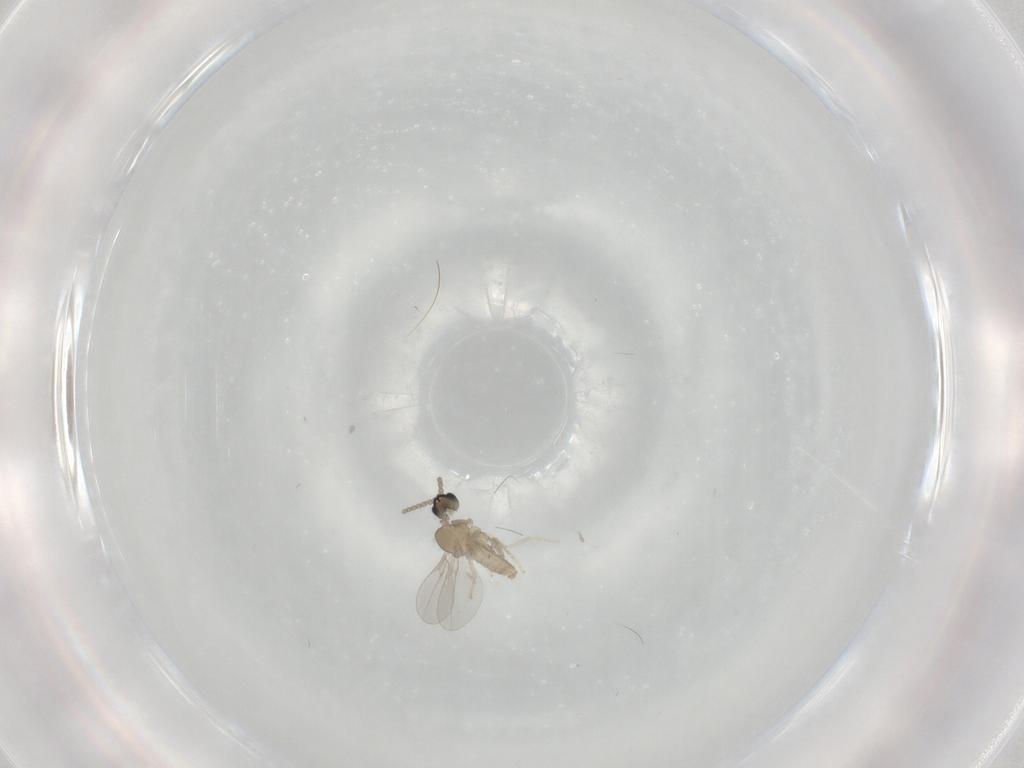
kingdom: Animalia
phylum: Arthropoda
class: Insecta
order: Diptera
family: Cecidomyiidae
